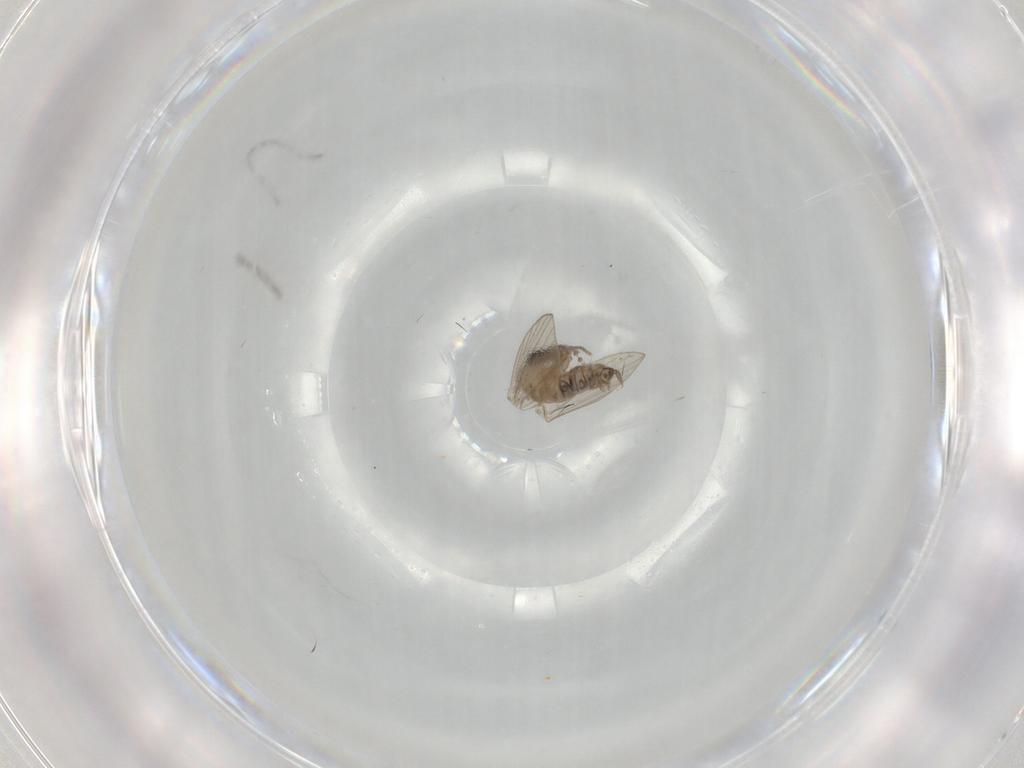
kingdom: Animalia
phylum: Arthropoda
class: Insecta
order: Diptera
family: Psychodidae
